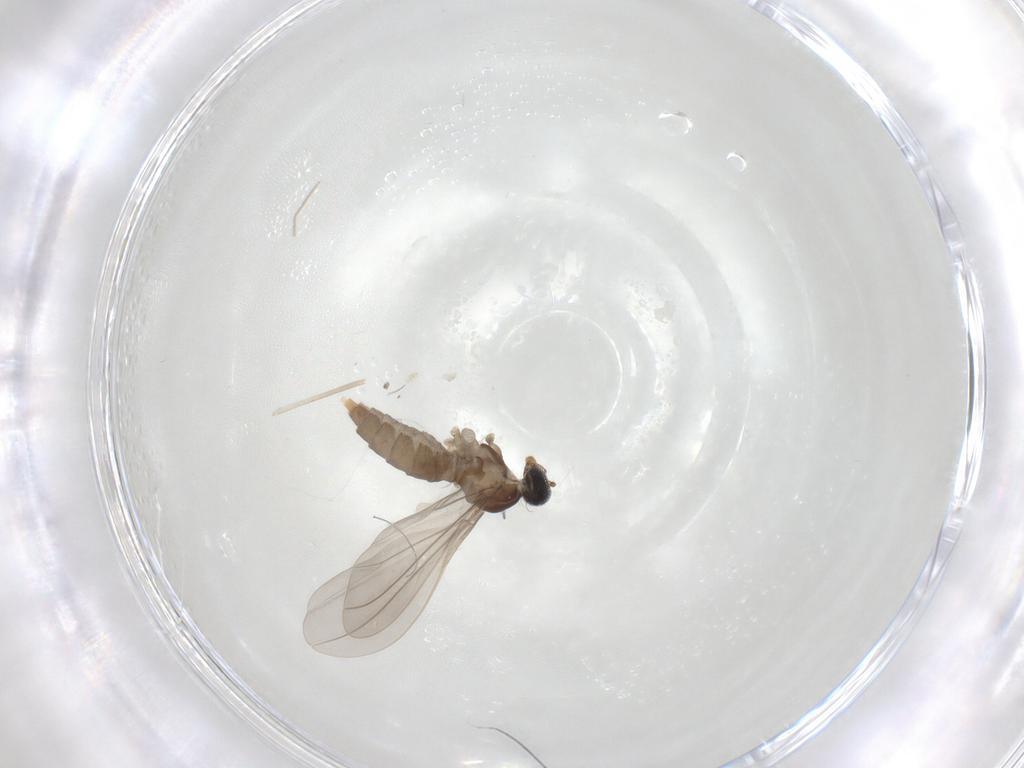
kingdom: Animalia
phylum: Arthropoda
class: Insecta
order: Diptera
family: Cecidomyiidae
